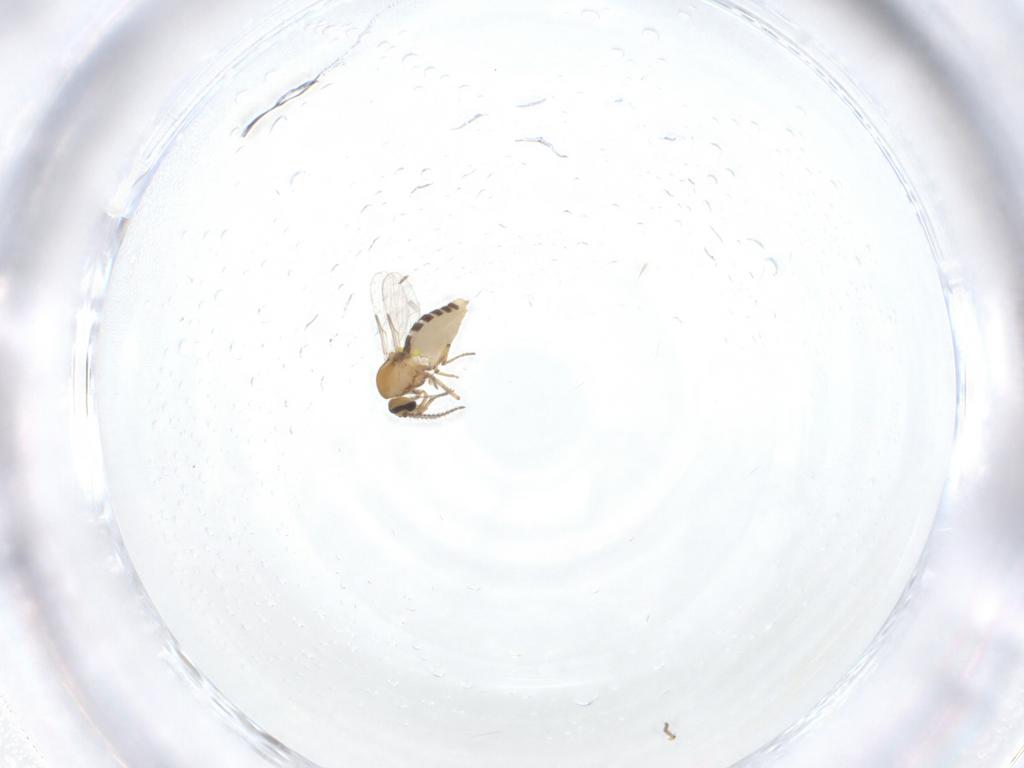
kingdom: Animalia
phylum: Arthropoda
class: Insecta
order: Diptera
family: Ceratopogonidae
